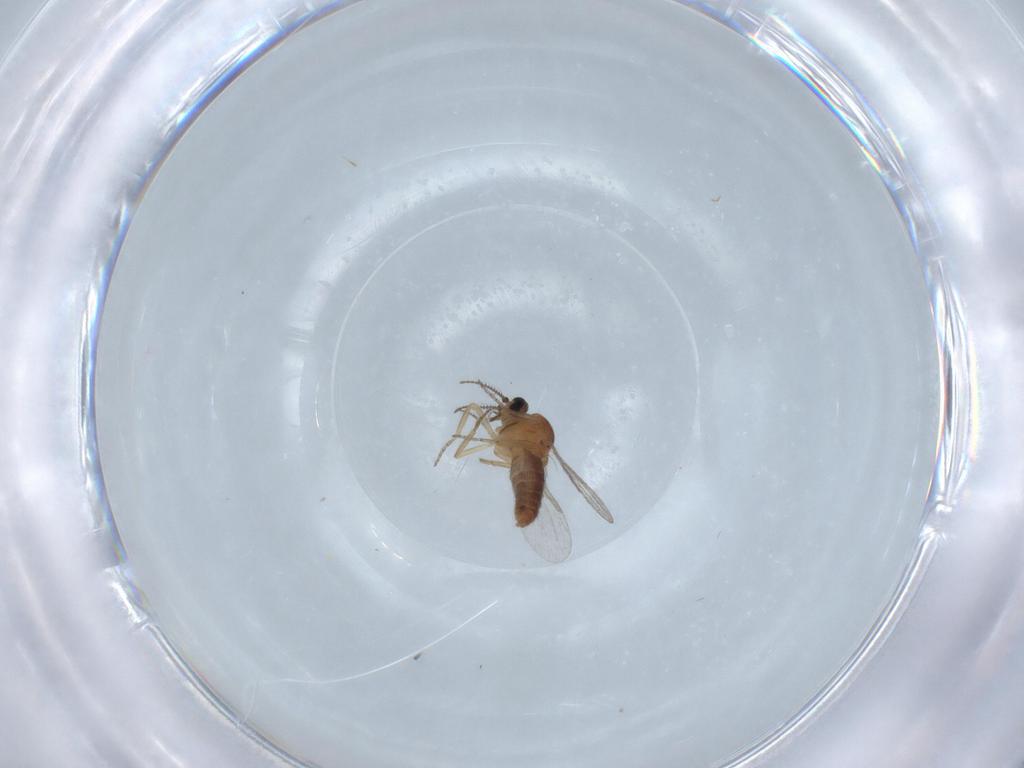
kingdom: Animalia
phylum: Arthropoda
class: Insecta
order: Diptera
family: Ceratopogonidae
